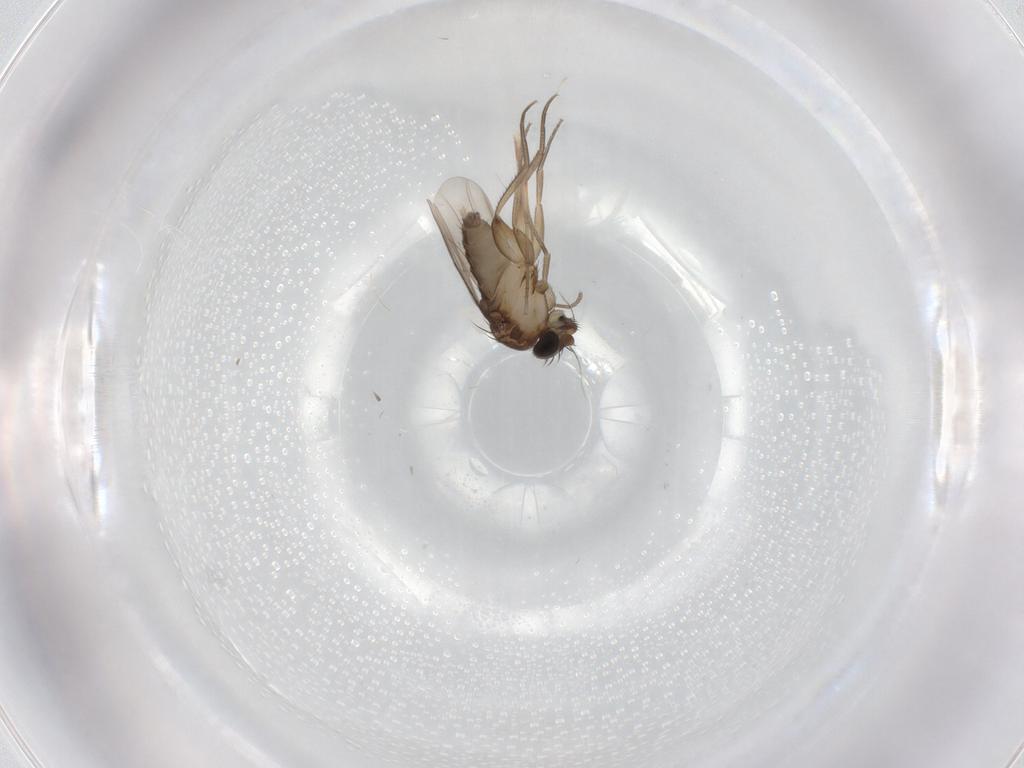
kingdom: Animalia
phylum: Arthropoda
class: Insecta
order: Diptera
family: Phoridae
